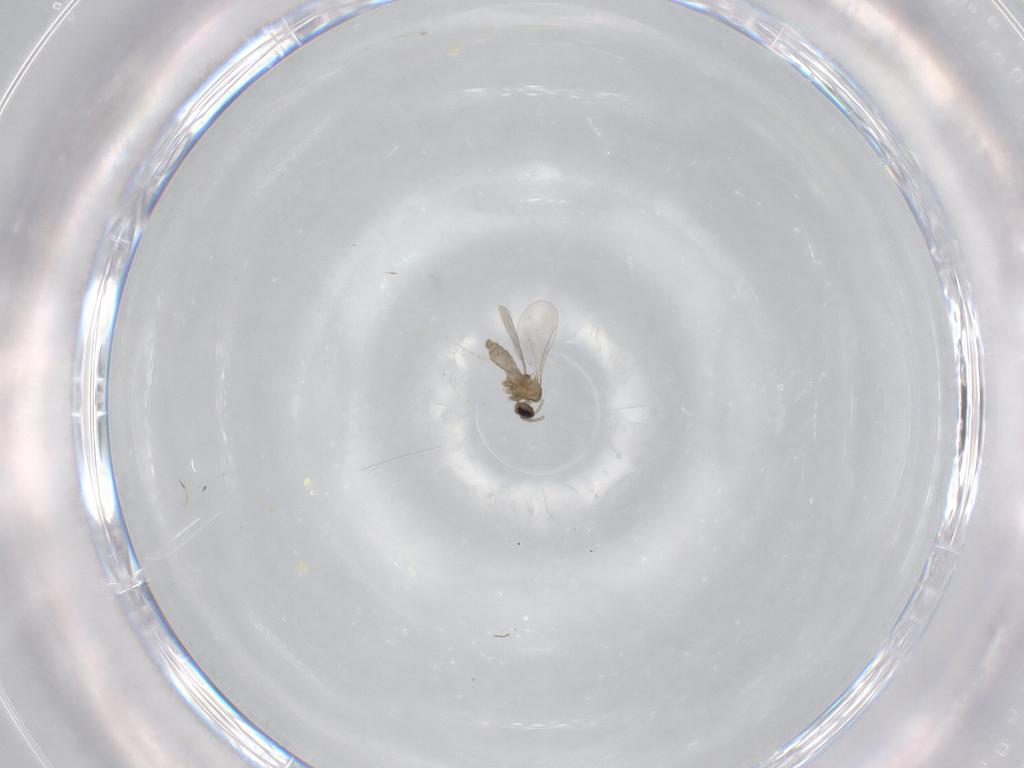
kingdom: Animalia
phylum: Arthropoda
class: Insecta
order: Diptera
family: Cecidomyiidae
